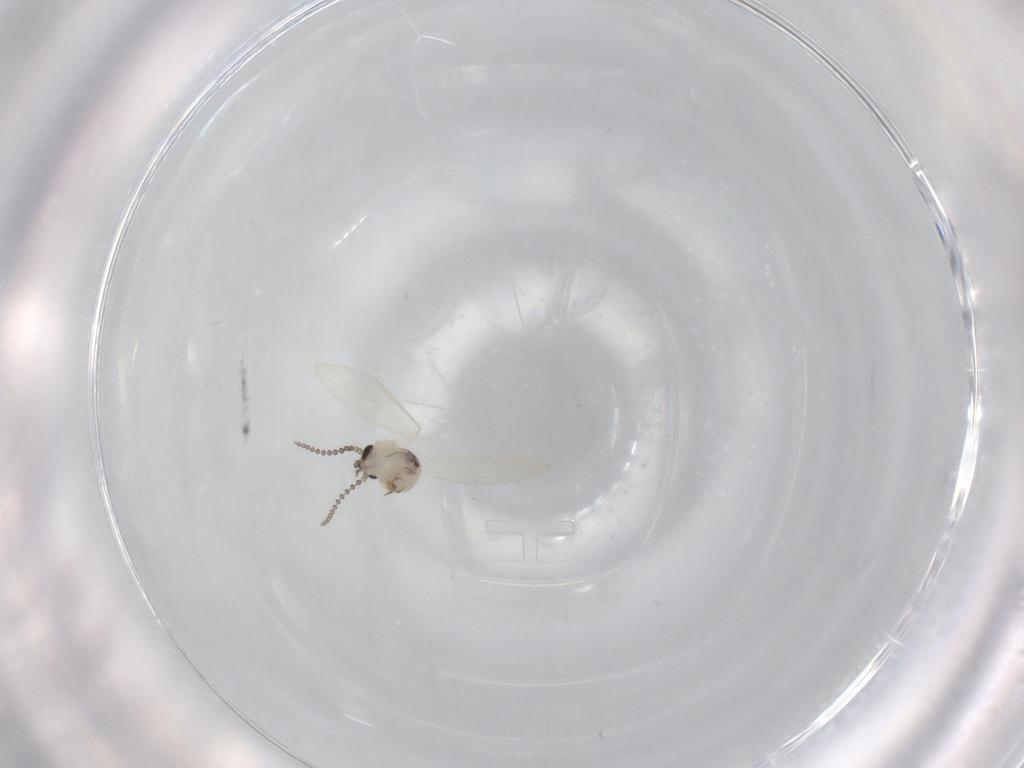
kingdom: Animalia
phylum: Arthropoda
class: Insecta
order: Diptera
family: Psychodidae
